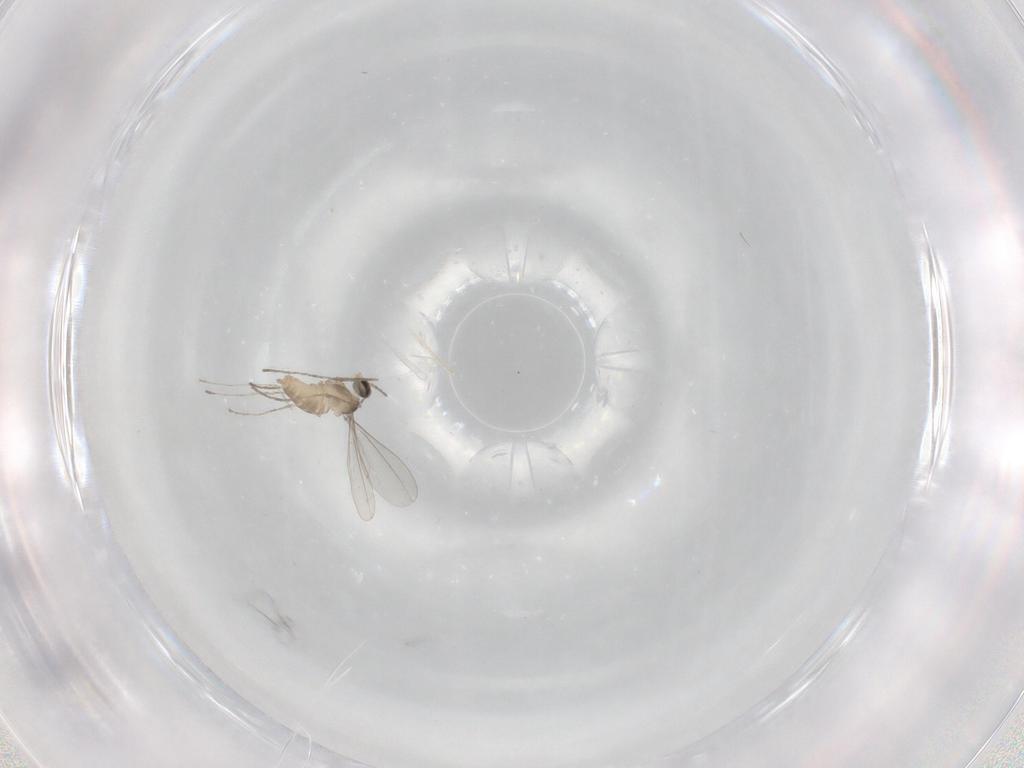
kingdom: Animalia
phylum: Arthropoda
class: Insecta
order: Diptera
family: Cecidomyiidae
